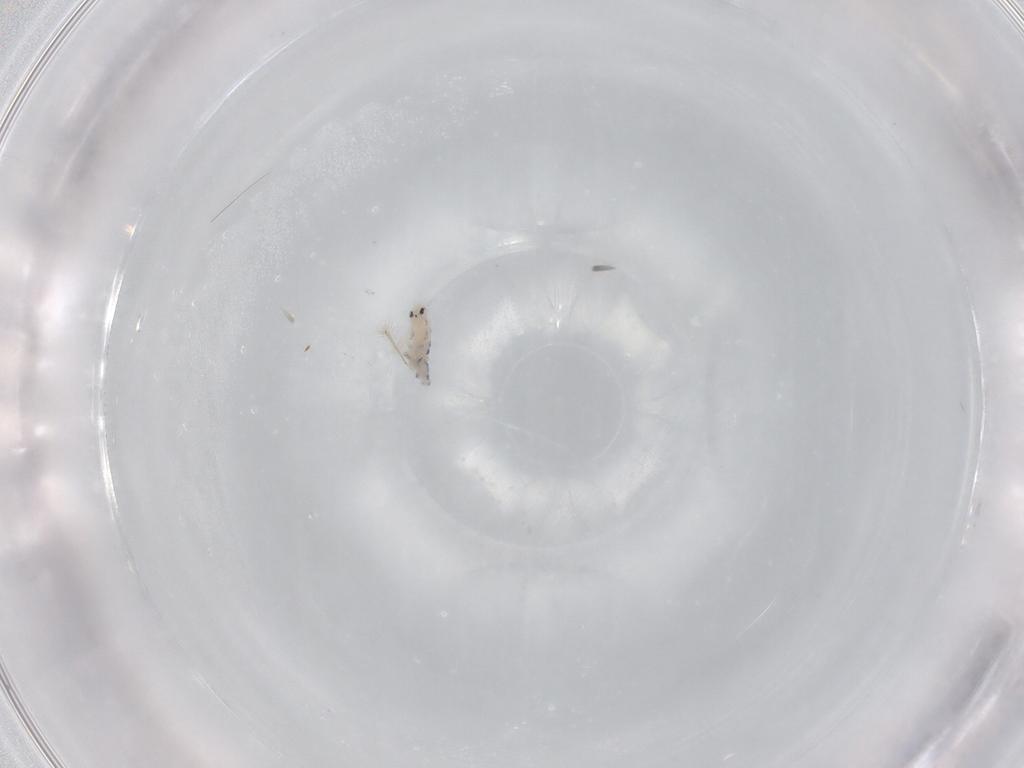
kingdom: Animalia
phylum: Arthropoda
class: Collembola
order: Entomobryomorpha
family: Entomobryidae
